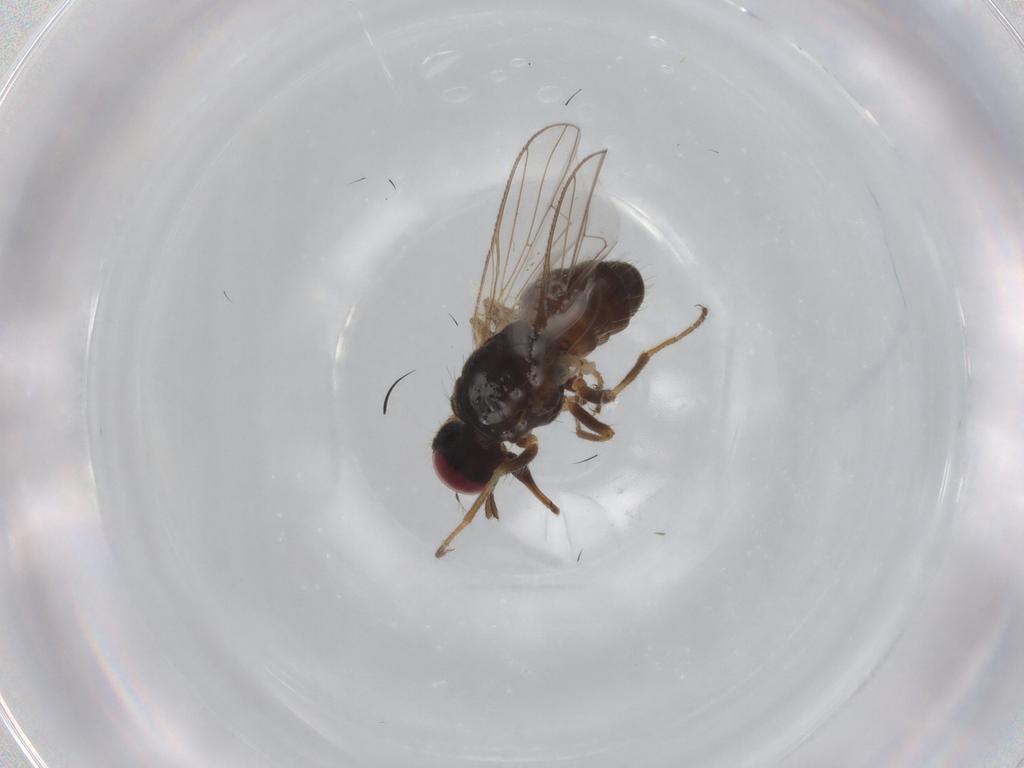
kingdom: Animalia
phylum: Arthropoda
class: Insecta
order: Diptera
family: Muscidae
